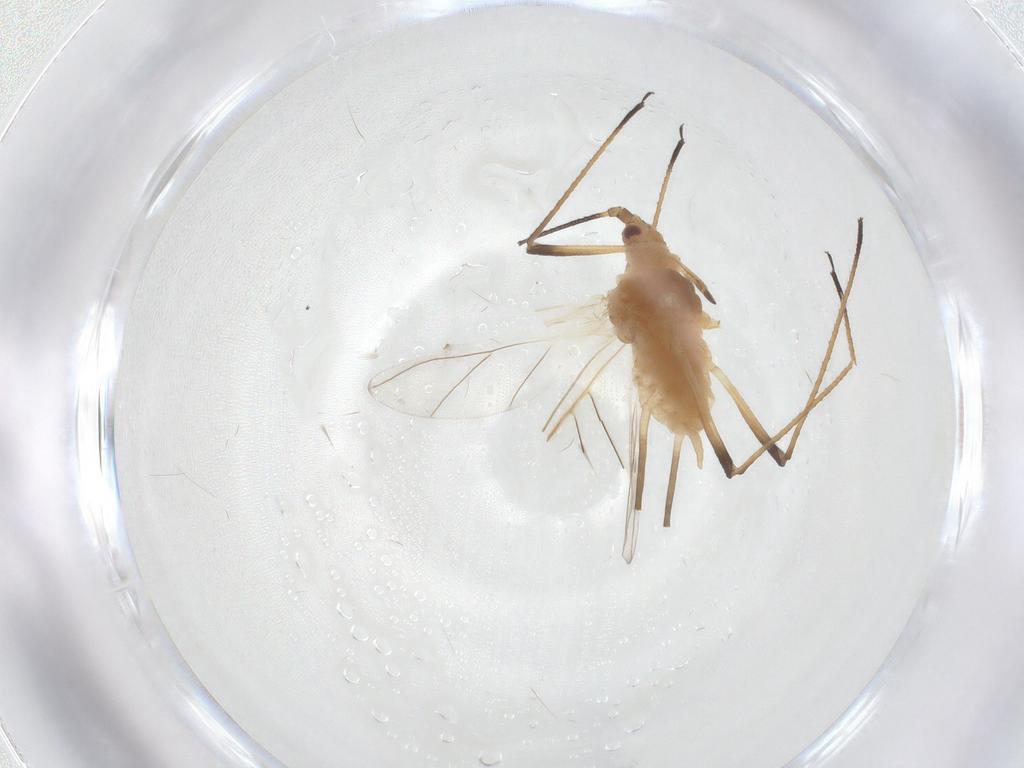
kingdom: Animalia
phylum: Arthropoda
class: Insecta
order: Hemiptera
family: Aphididae
